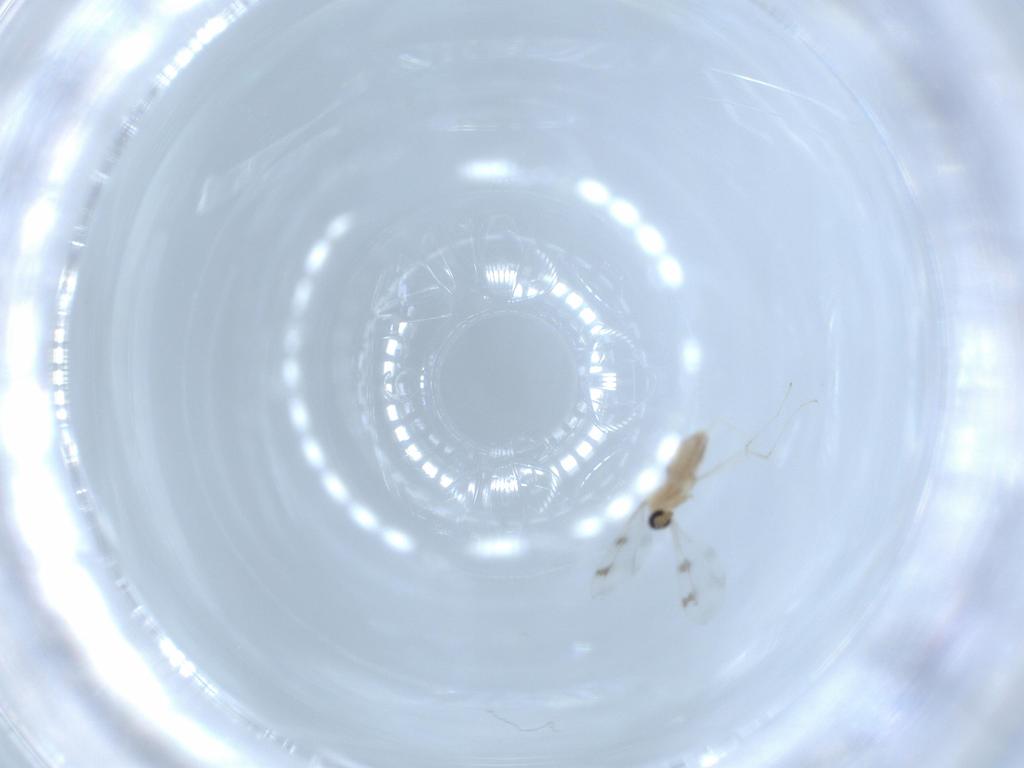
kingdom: Animalia
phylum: Arthropoda
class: Insecta
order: Diptera
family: Cecidomyiidae
